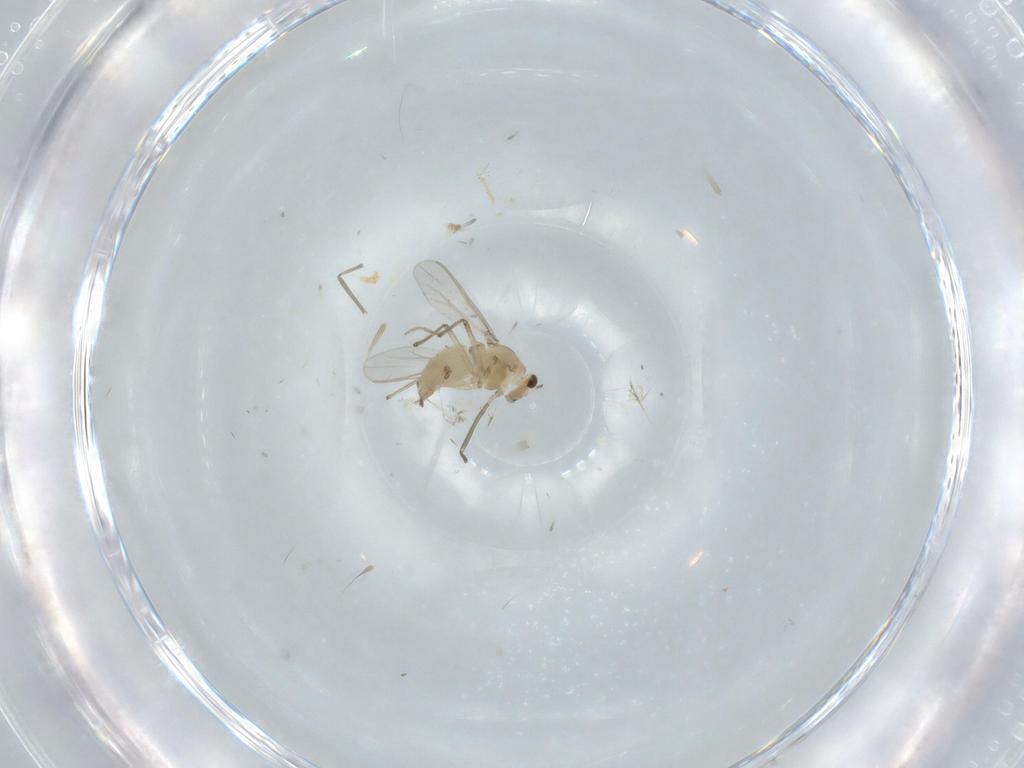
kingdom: Animalia
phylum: Arthropoda
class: Insecta
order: Diptera
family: Chironomidae
